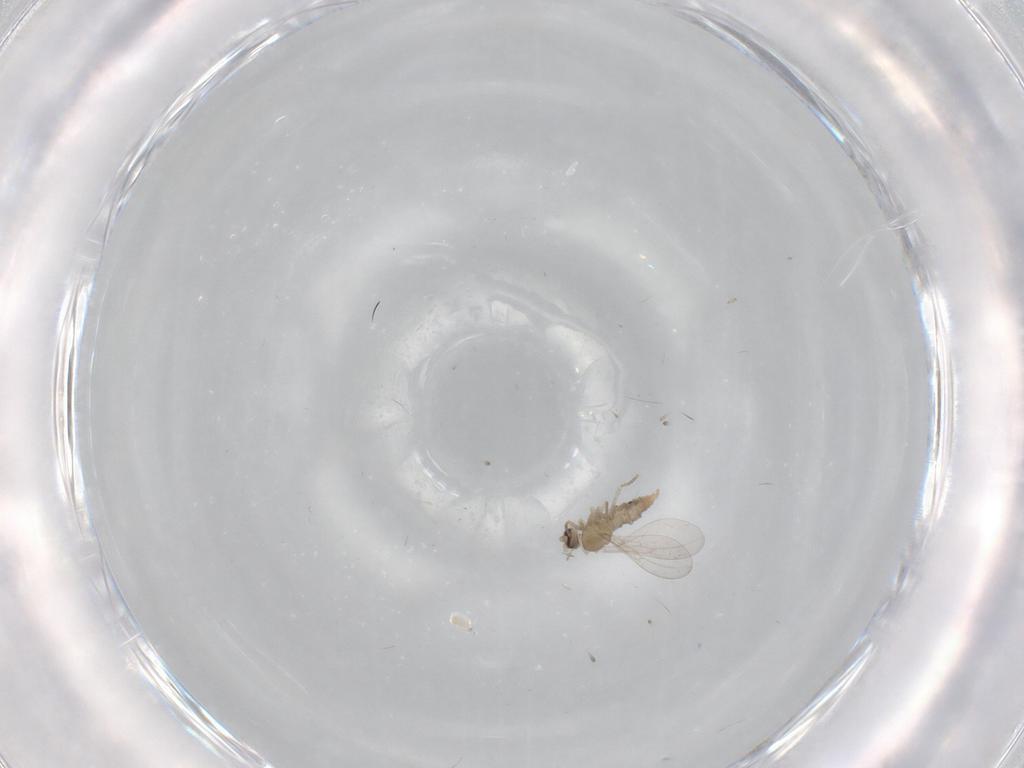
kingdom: Animalia
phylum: Arthropoda
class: Insecta
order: Diptera
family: Cecidomyiidae
